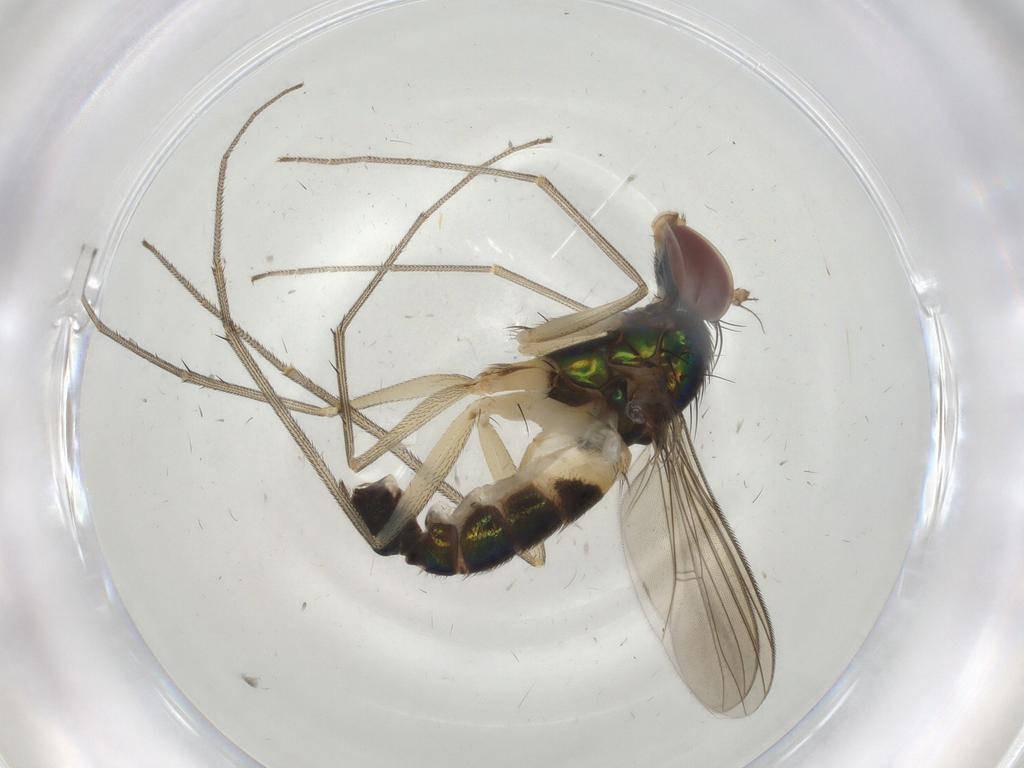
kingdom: Animalia
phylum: Arthropoda
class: Insecta
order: Diptera
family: Dolichopodidae
